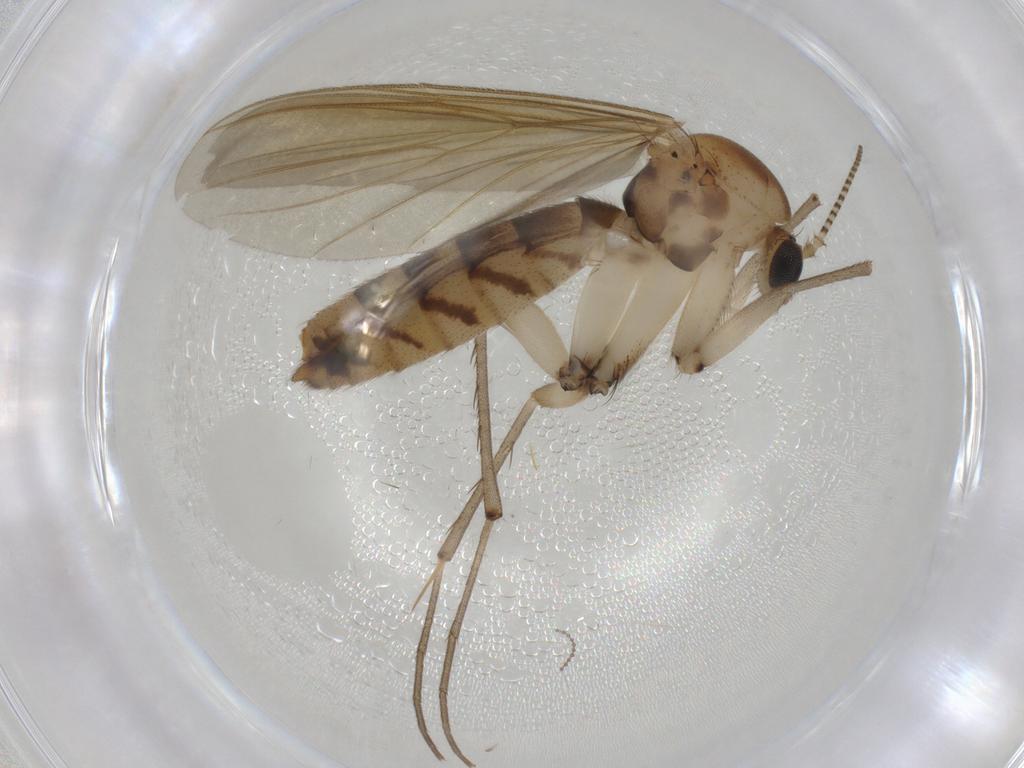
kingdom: Animalia
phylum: Arthropoda
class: Insecta
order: Diptera
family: Mycetophilidae
